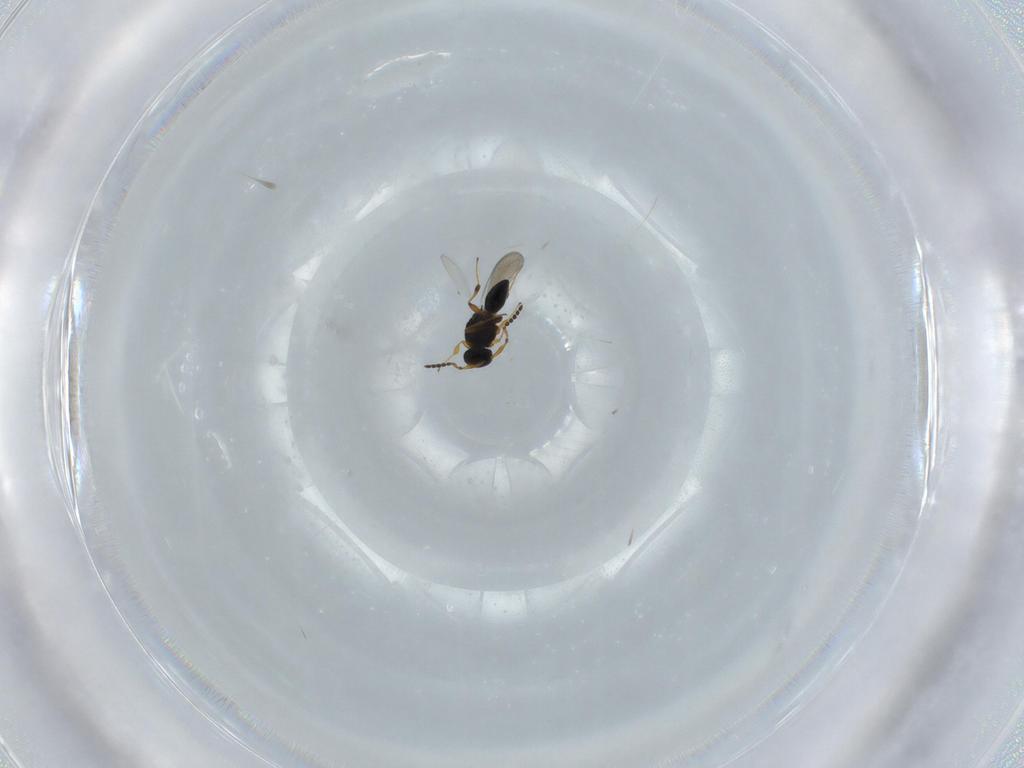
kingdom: Animalia
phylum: Arthropoda
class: Insecta
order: Hymenoptera
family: Scelionidae
